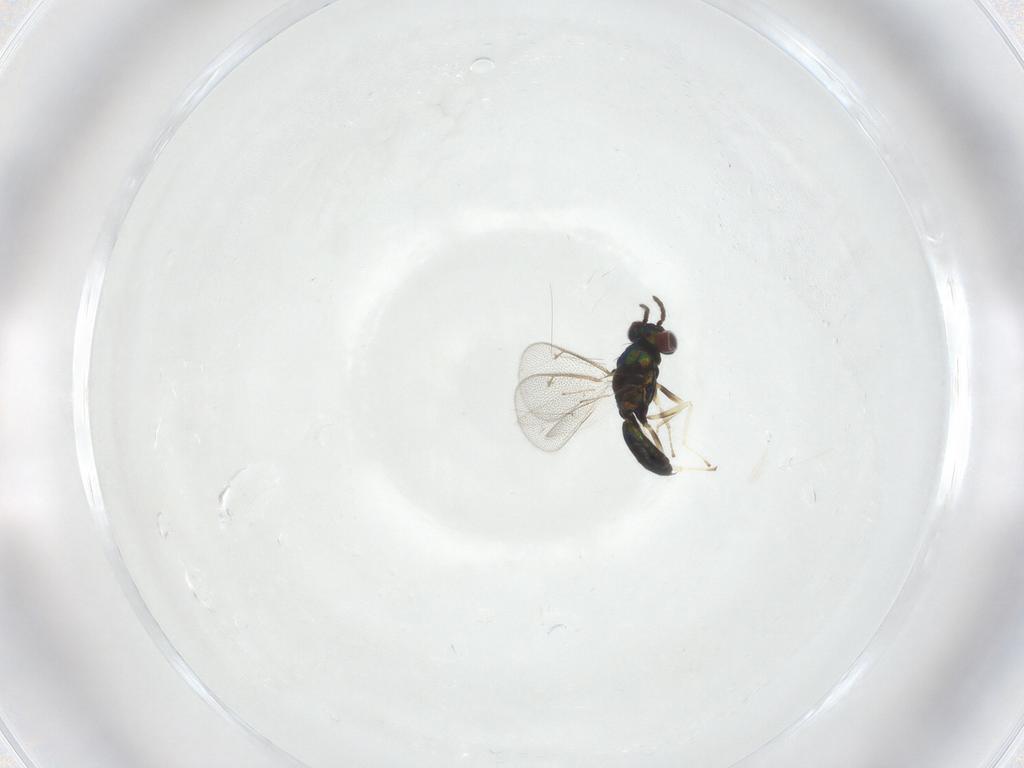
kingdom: Animalia
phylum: Arthropoda
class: Insecta
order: Hymenoptera
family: Eulophidae
